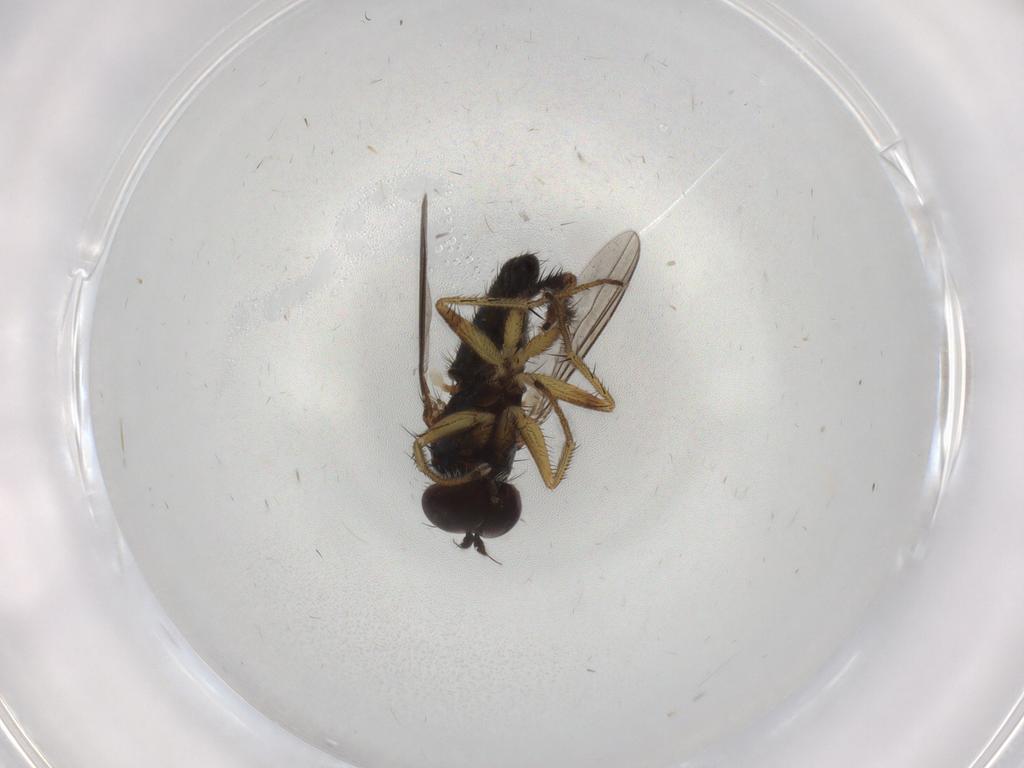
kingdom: Animalia
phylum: Arthropoda
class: Insecta
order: Diptera
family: Dolichopodidae
